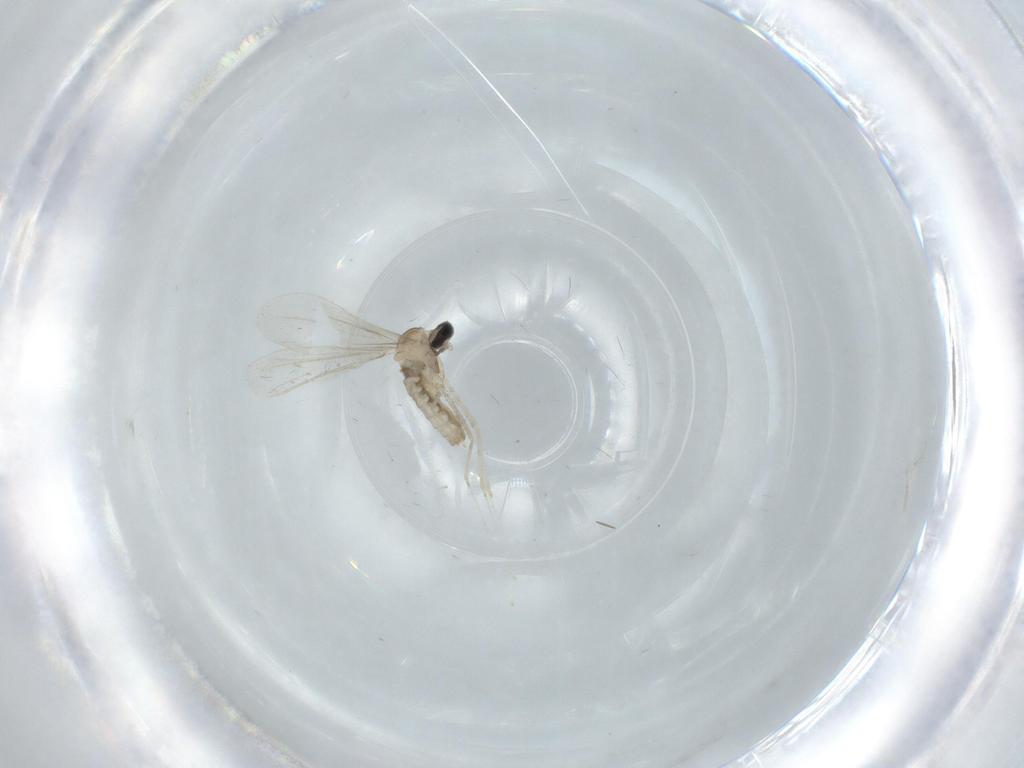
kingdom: Animalia
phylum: Arthropoda
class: Insecta
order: Diptera
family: Cecidomyiidae
